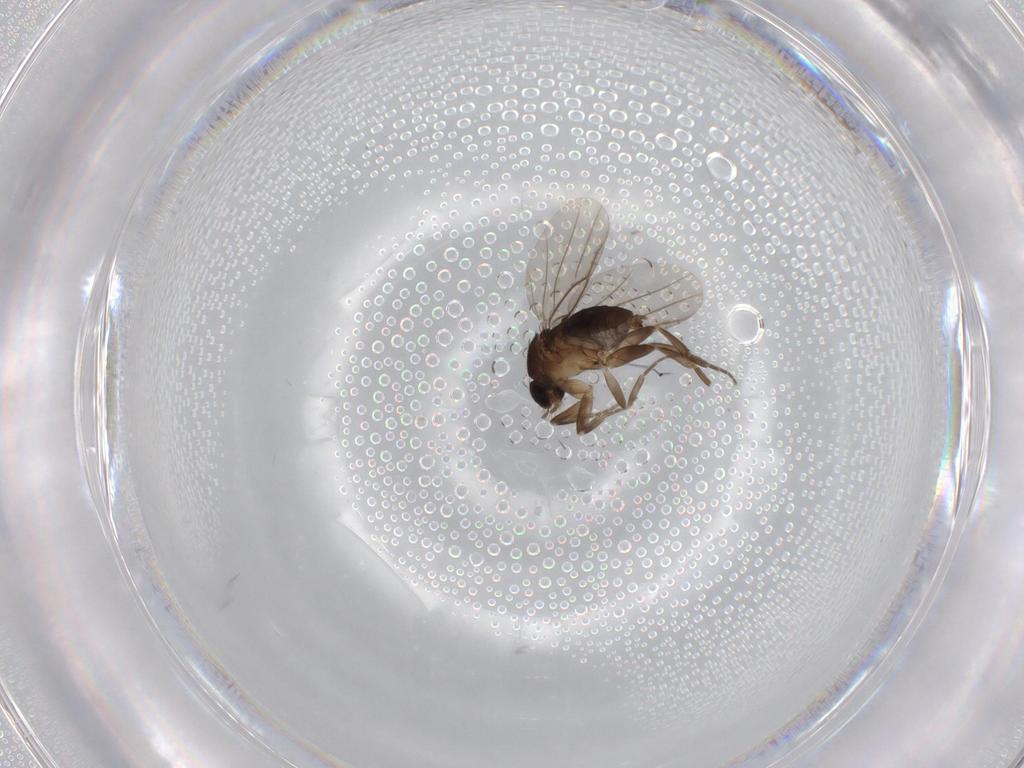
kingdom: Animalia
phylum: Arthropoda
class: Insecta
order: Diptera
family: Phoridae
